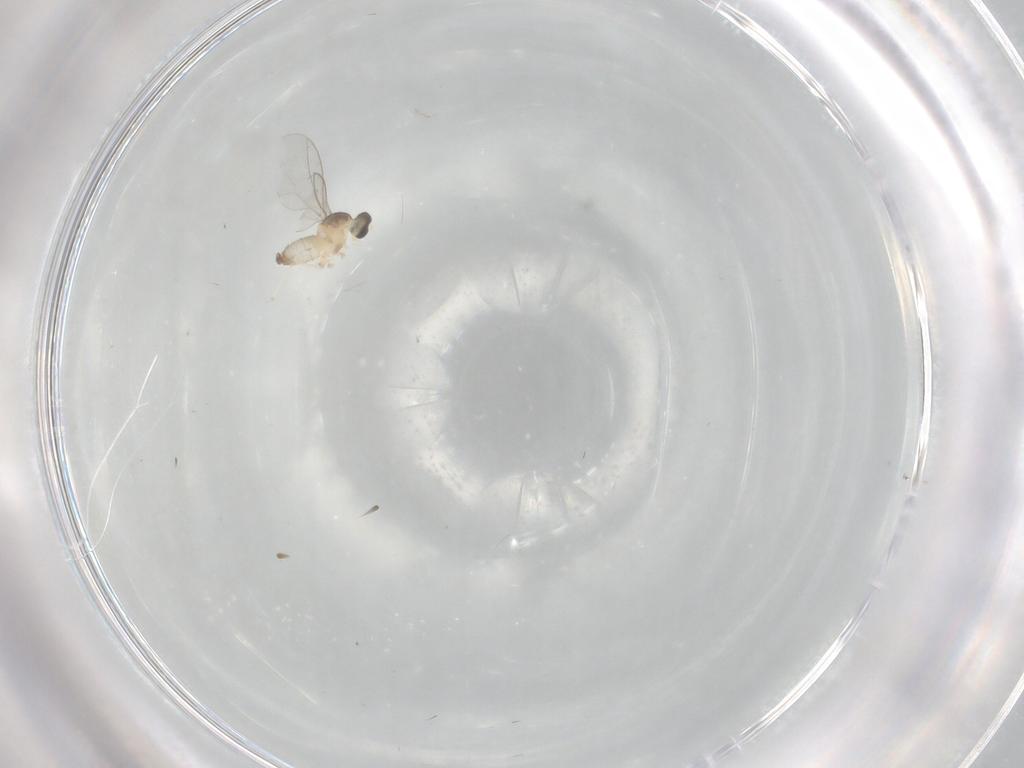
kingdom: Animalia
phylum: Arthropoda
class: Insecta
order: Diptera
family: Cecidomyiidae
